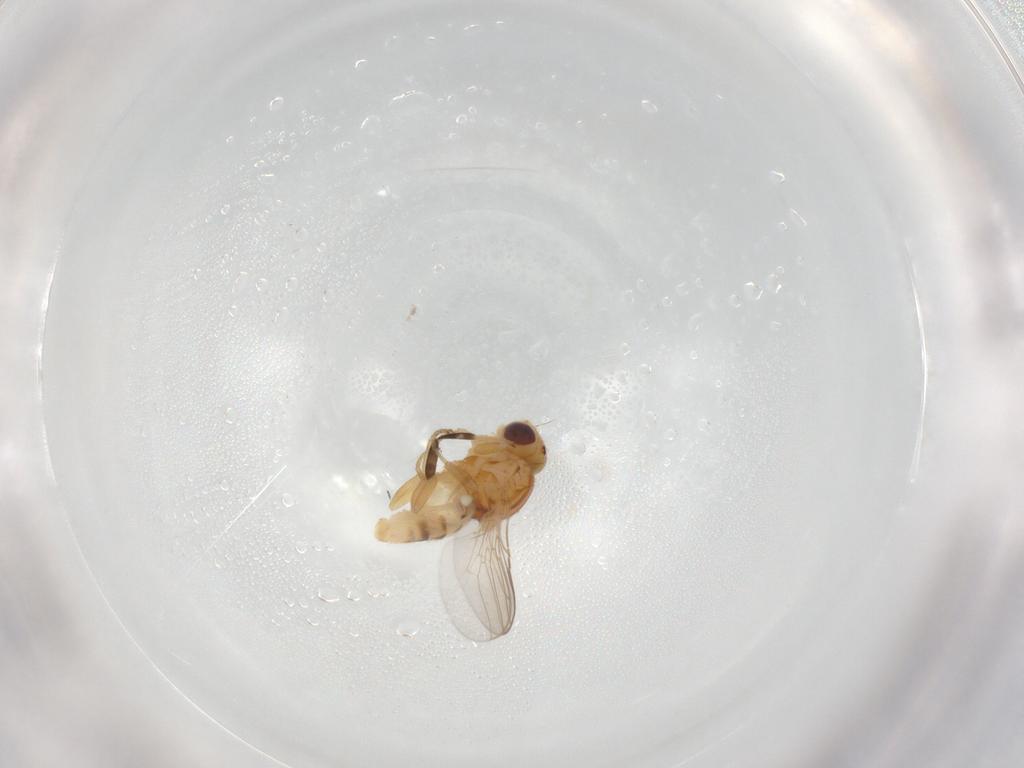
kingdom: Animalia
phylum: Arthropoda
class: Insecta
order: Diptera
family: Chloropidae
